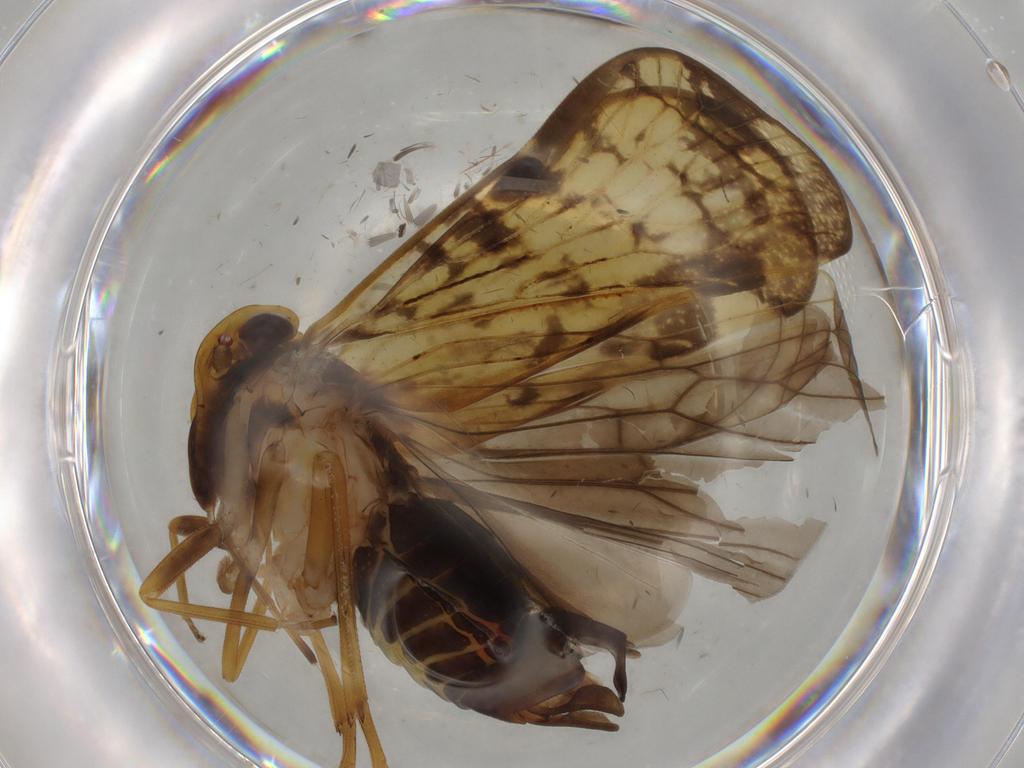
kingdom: Animalia
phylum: Arthropoda
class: Insecta
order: Hemiptera
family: Cixiidae
